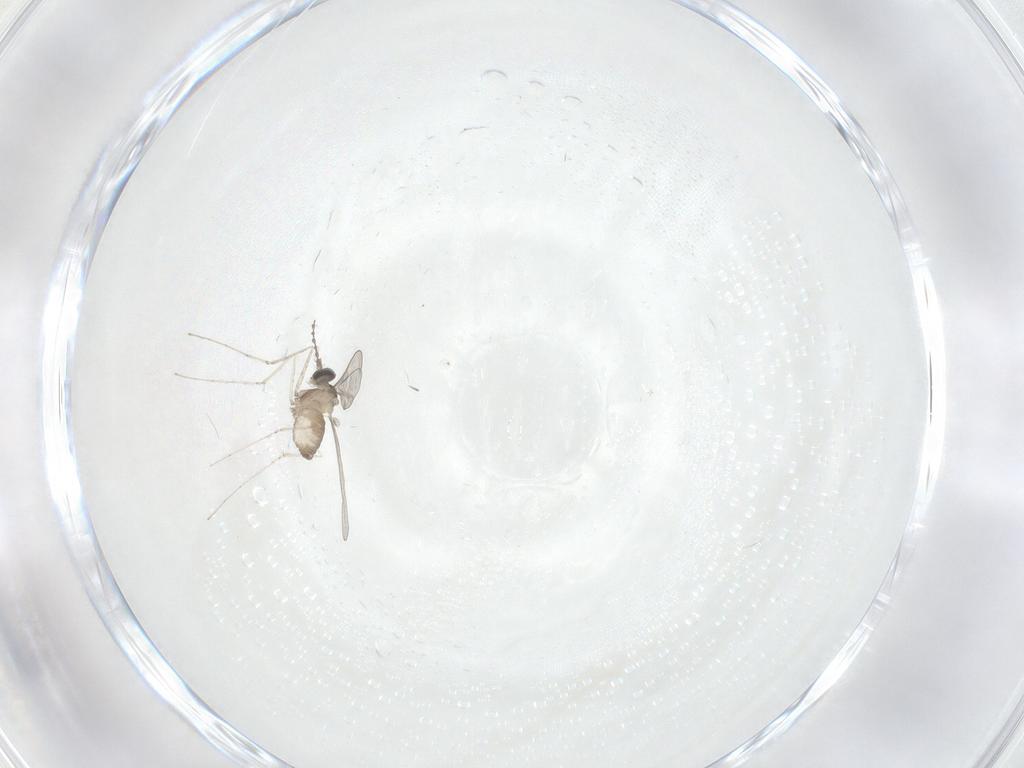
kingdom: Animalia
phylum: Arthropoda
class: Insecta
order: Diptera
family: Cecidomyiidae
